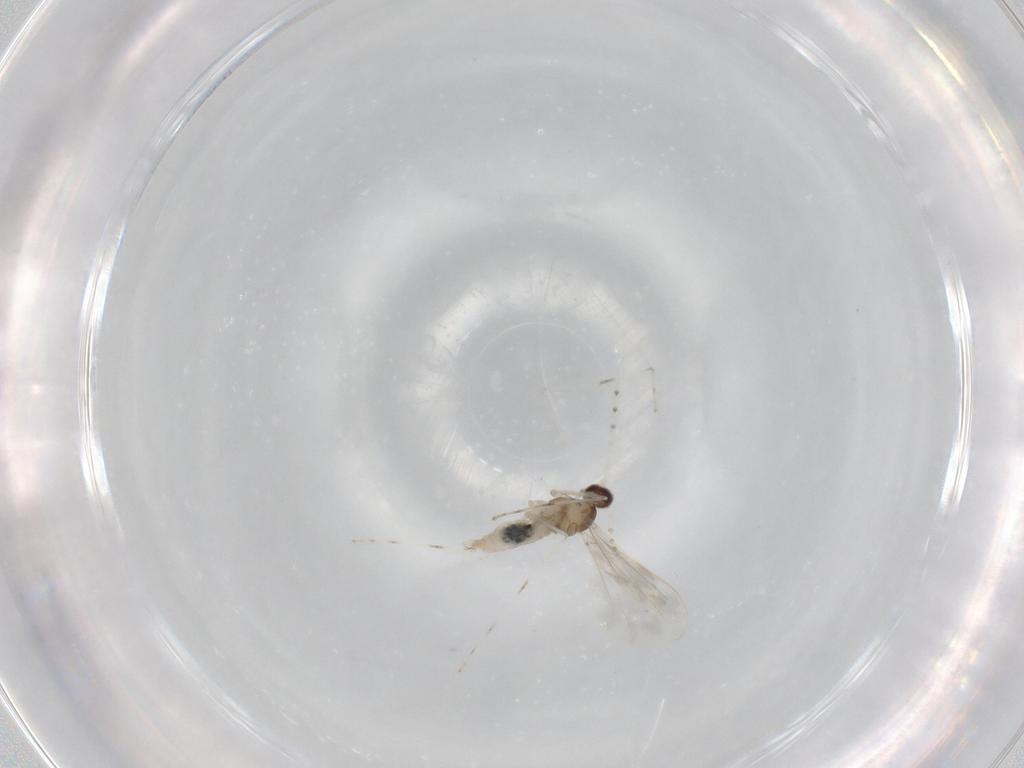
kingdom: Animalia
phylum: Arthropoda
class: Insecta
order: Diptera
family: Cecidomyiidae
